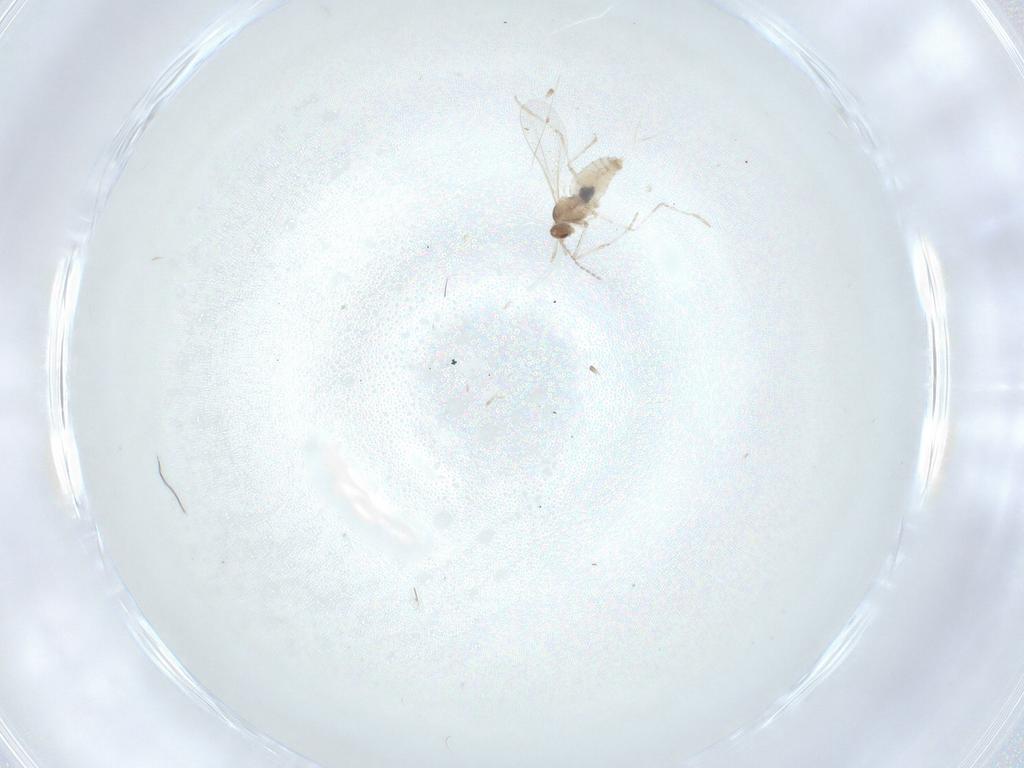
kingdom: Animalia
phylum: Arthropoda
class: Insecta
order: Diptera
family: Cecidomyiidae
